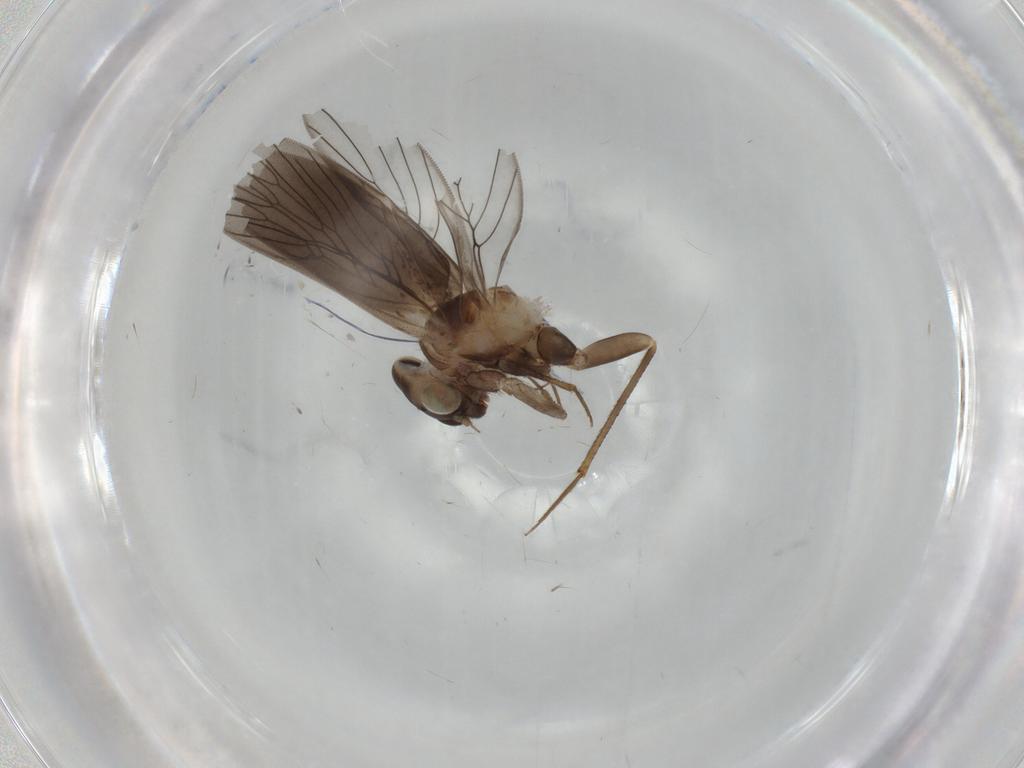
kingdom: Animalia
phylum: Arthropoda
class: Insecta
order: Psocodea
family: Lepidopsocidae
